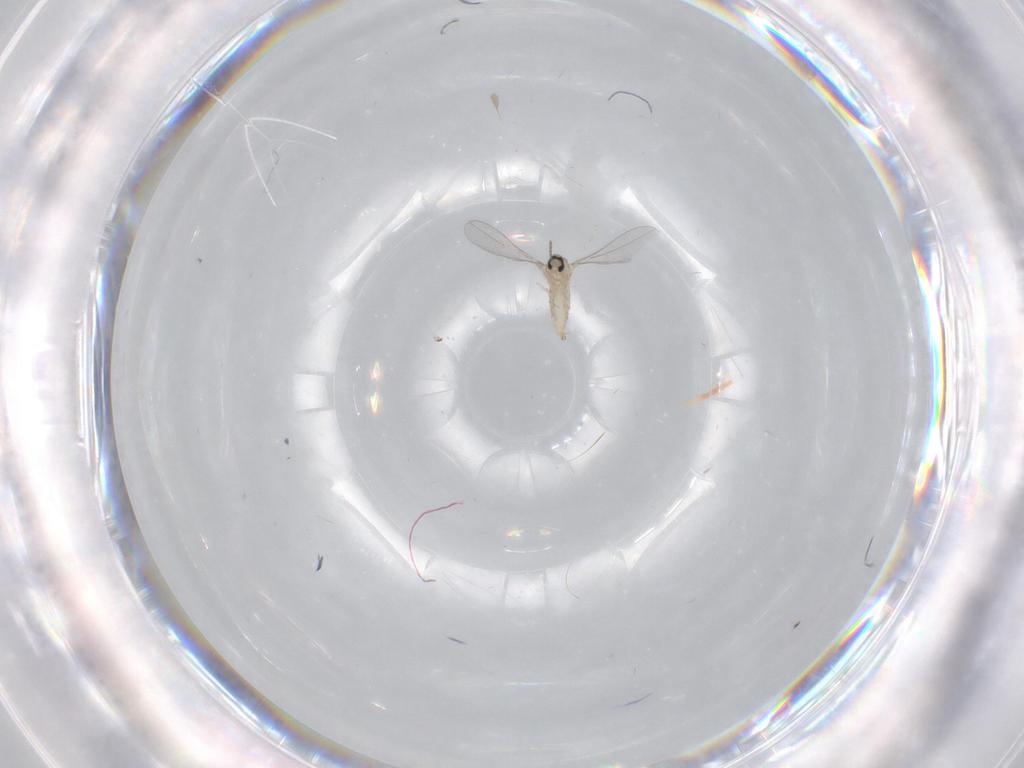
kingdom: Animalia
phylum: Arthropoda
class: Insecta
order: Diptera
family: Cecidomyiidae
